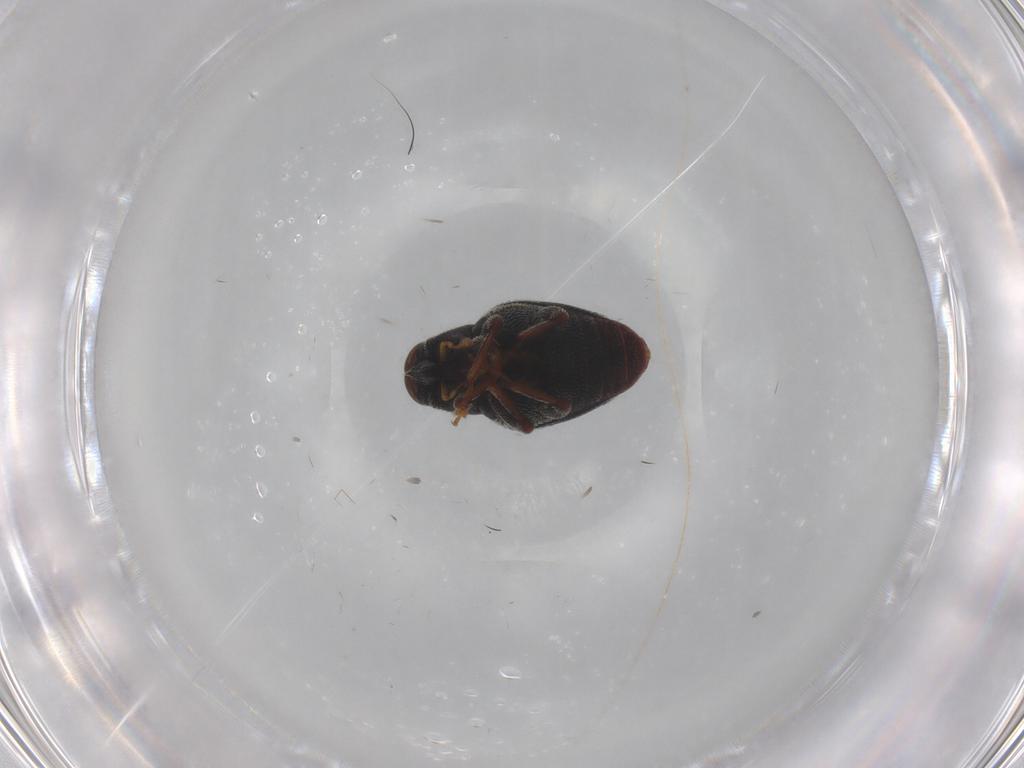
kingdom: Animalia
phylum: Arthropoda
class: Insecta
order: Coleoptera
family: Curculionidae
